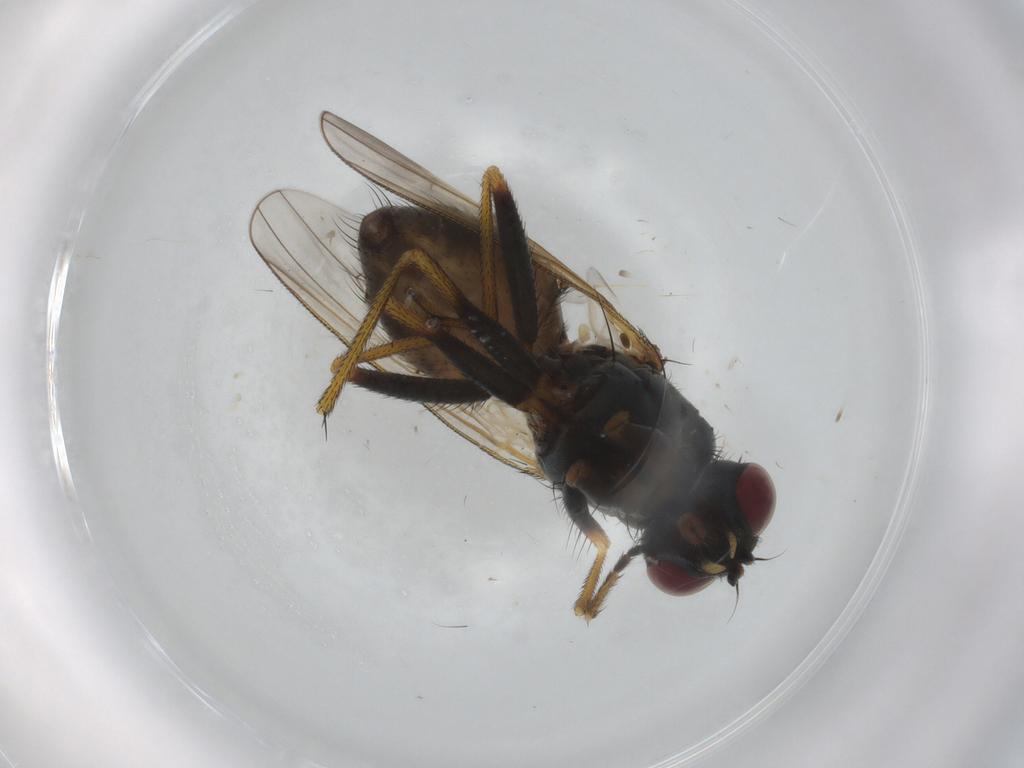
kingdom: Animalia
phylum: Arthropoda
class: Insecta
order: Diptera
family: Muscidae
